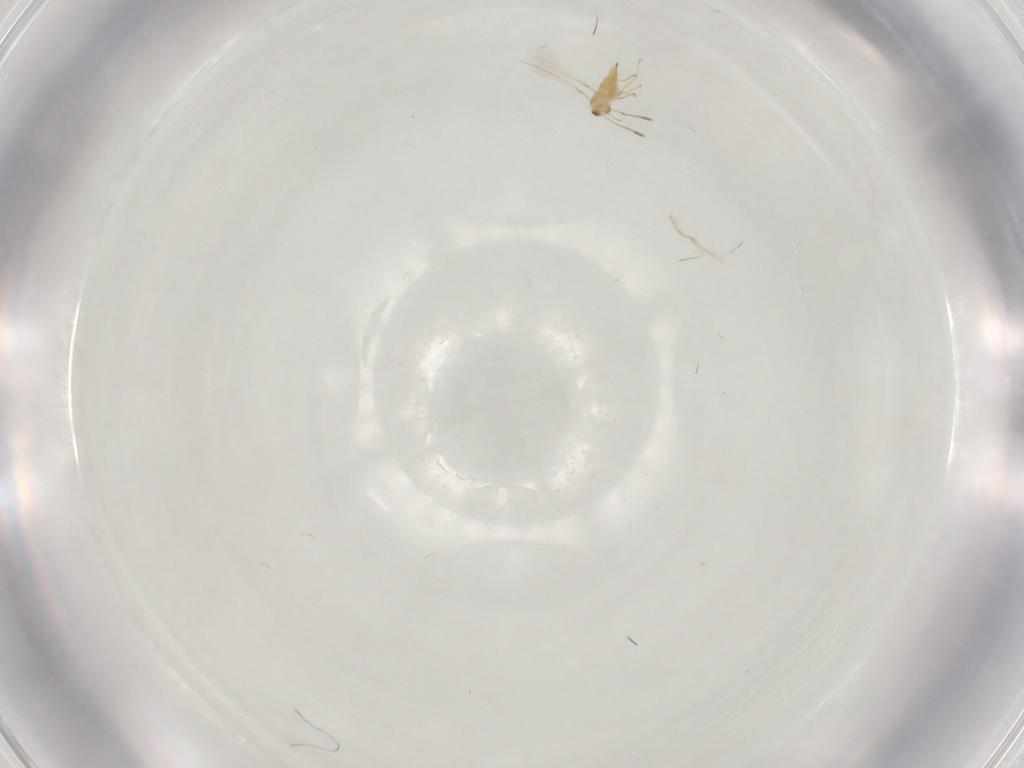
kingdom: Animalia
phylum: Arthropoda
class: Insecta
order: Hymenoptera
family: Mymaridae
